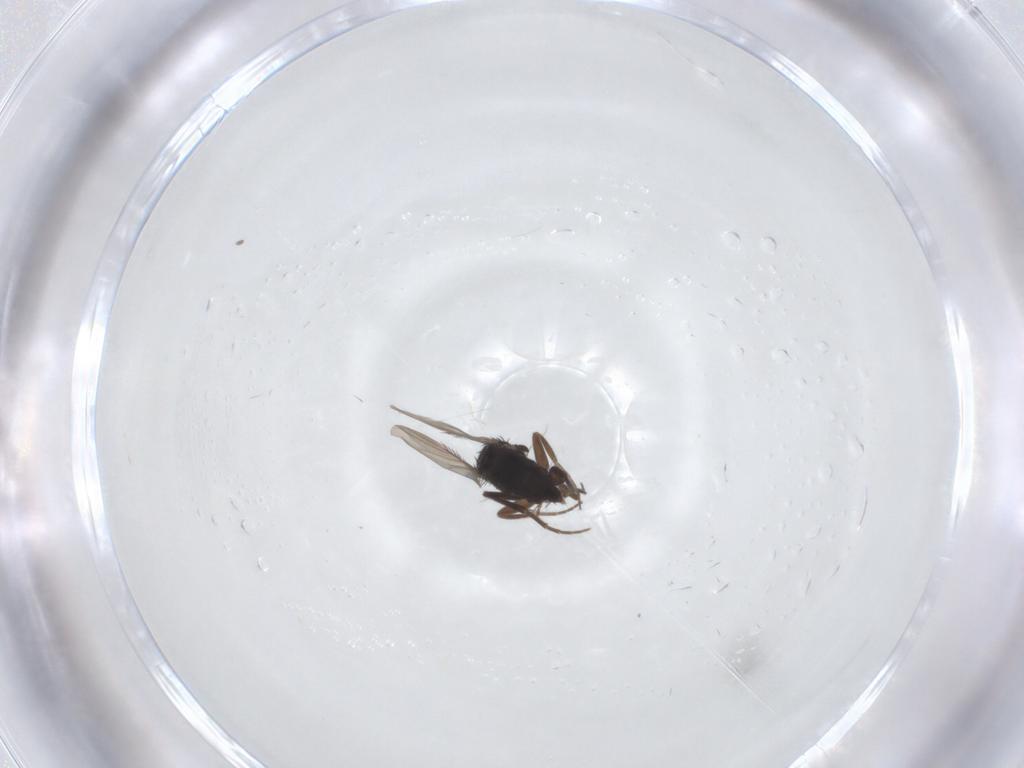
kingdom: Animalia
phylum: Arthropoda
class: Insecta
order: Diptera
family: Phoridae
